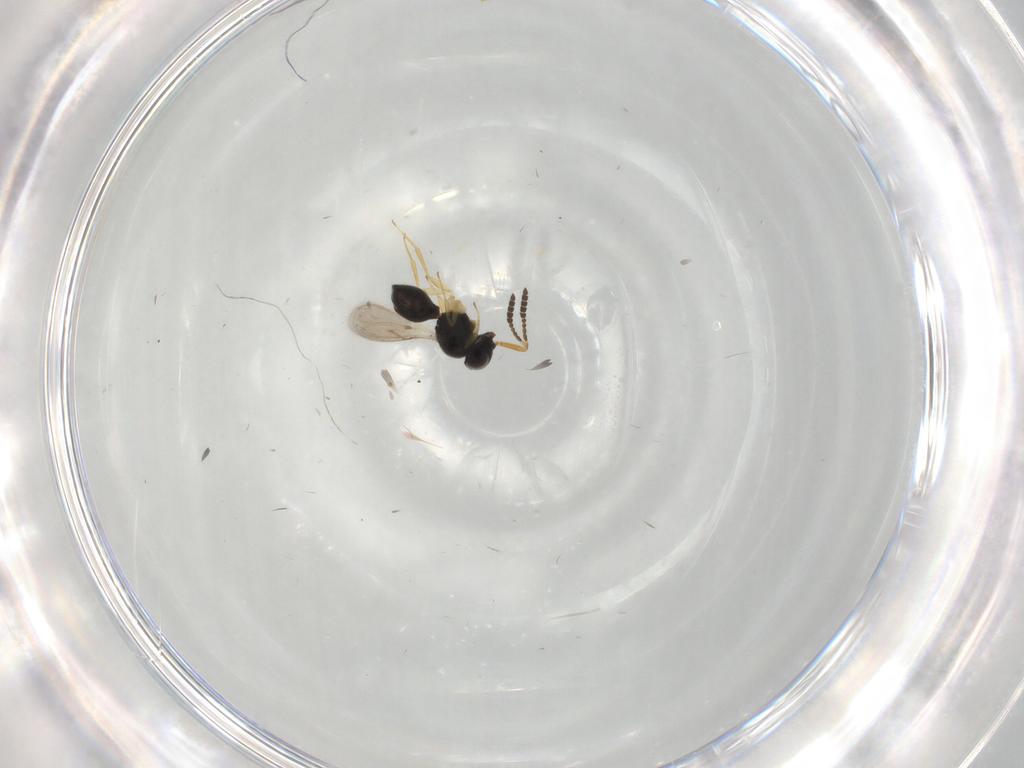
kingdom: Animalia
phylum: Arthropoda
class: Insecta
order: Hymenoptera
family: Scelionidae
